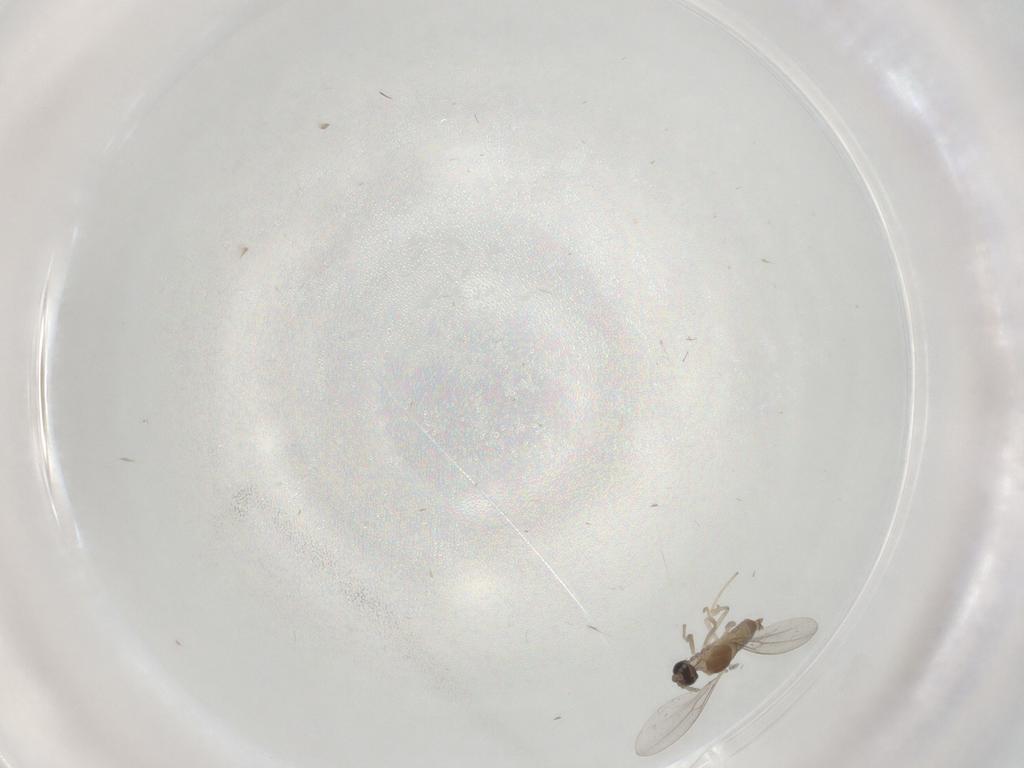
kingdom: Animalia
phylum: Arthropoda
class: Insecta
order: Diptera
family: Cecidomyiidae
